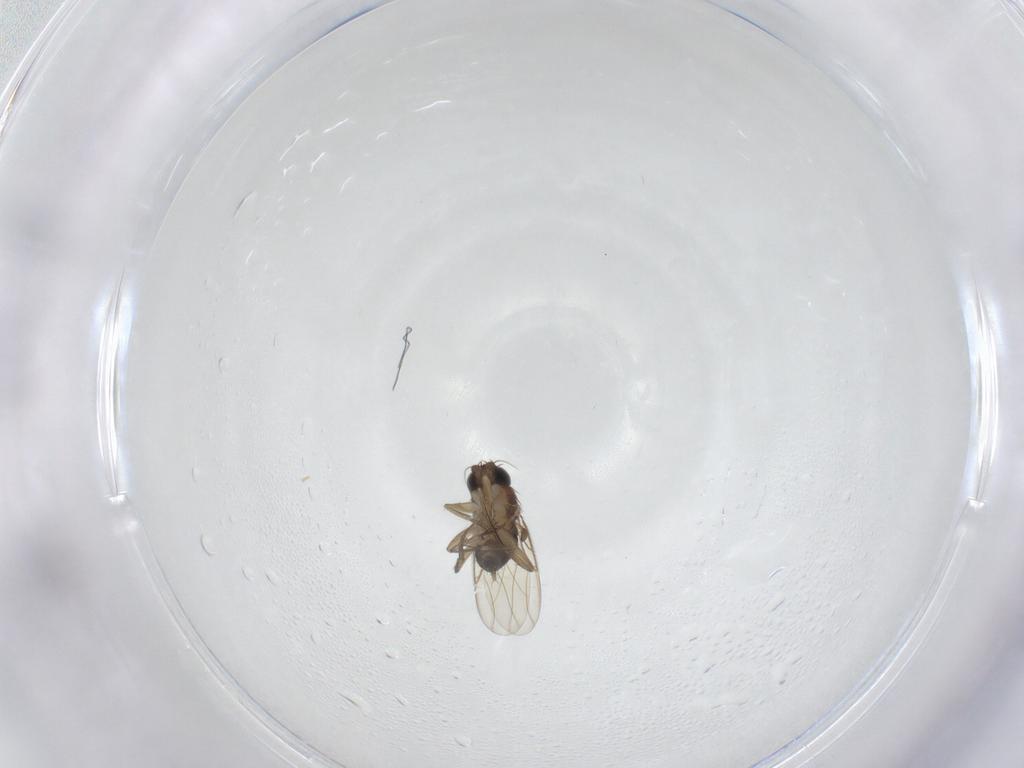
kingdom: Animalia
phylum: Arthropoda
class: Insecta
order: Diptera
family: Phoridae
